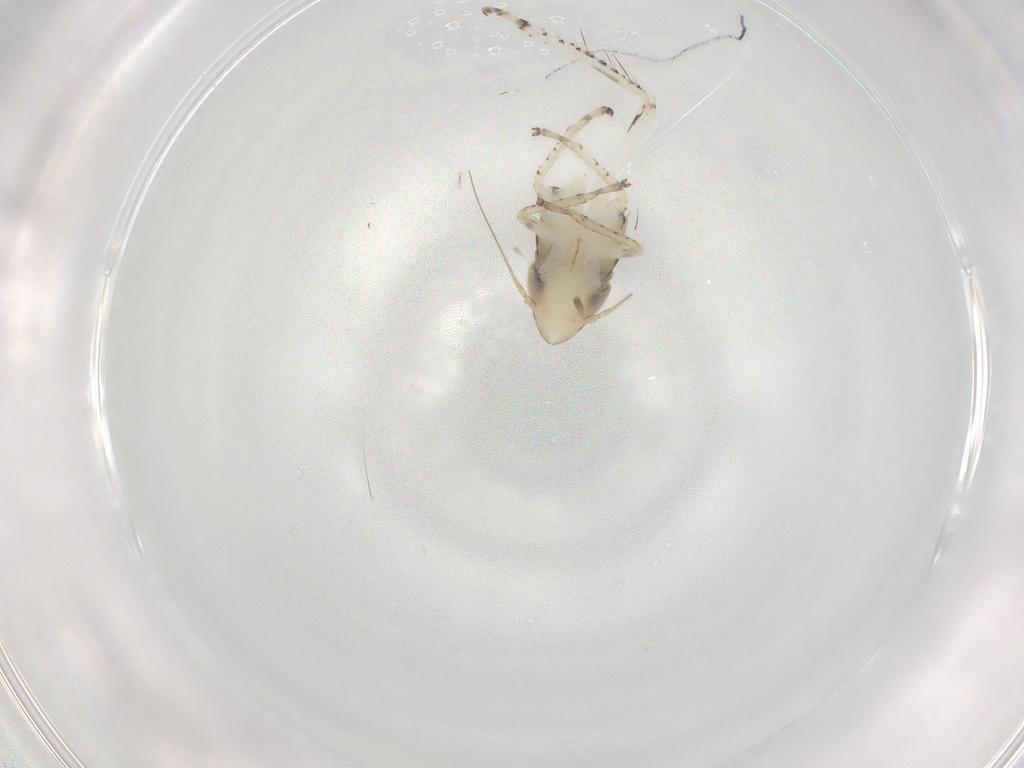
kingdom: Animalia
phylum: Arthropoda
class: Insecta
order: Hemiptera
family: Cicadellidae
